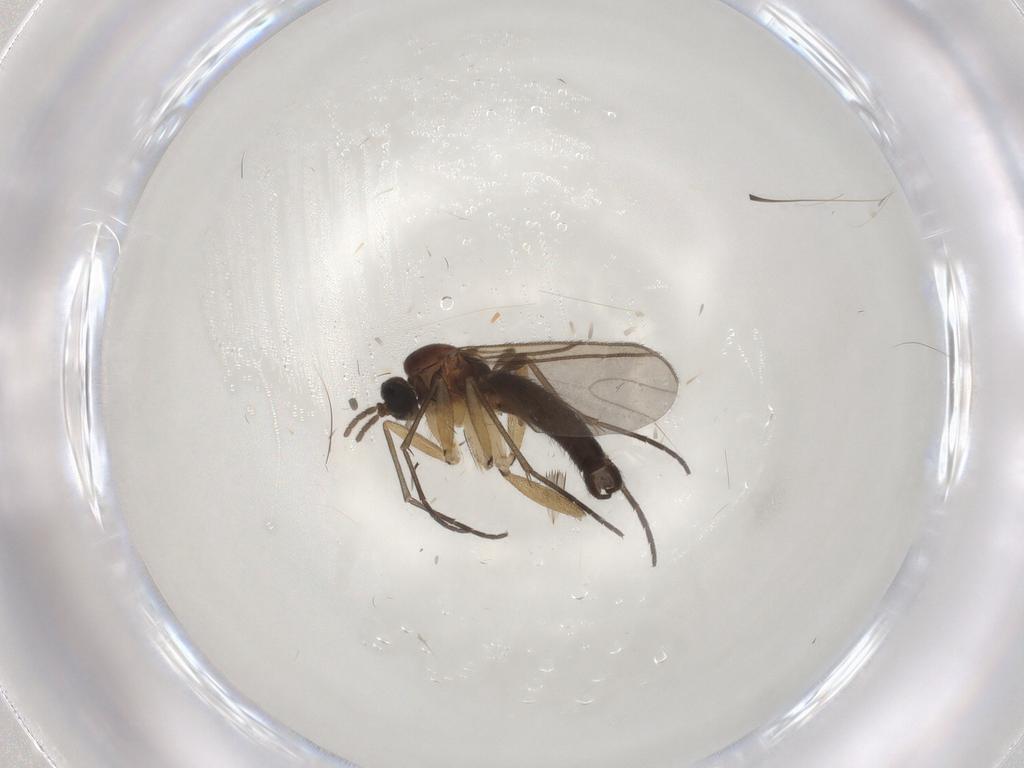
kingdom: Animalia
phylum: Arthropoda
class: Insecta
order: Diptera
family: Sciaridae
